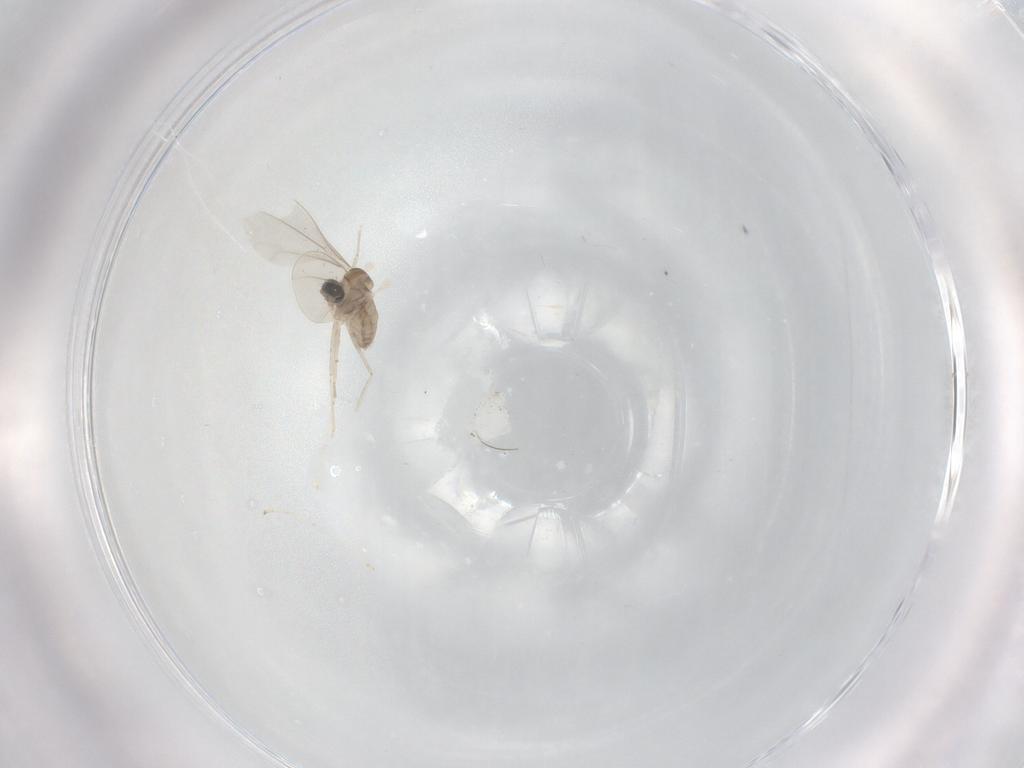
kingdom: Animalia
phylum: Arthropoda
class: Insecta
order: Diptera
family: Cecidomyiidae
